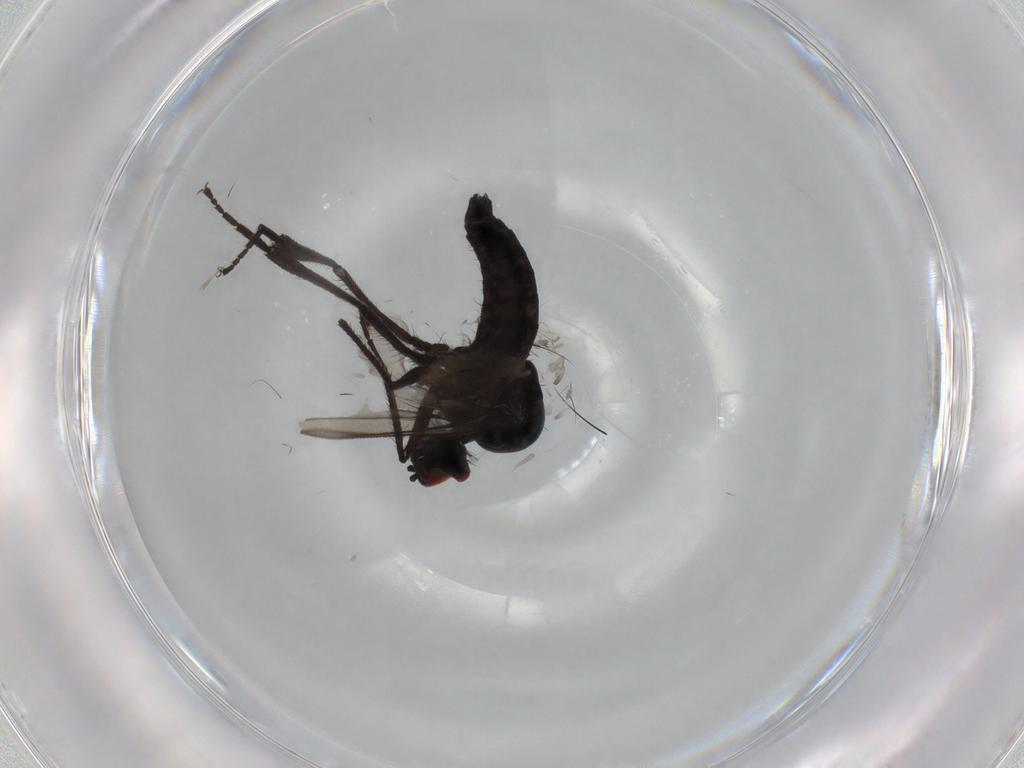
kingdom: Animalia
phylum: Arthropoda
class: Insecta
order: Diptera
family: Hybotidae
